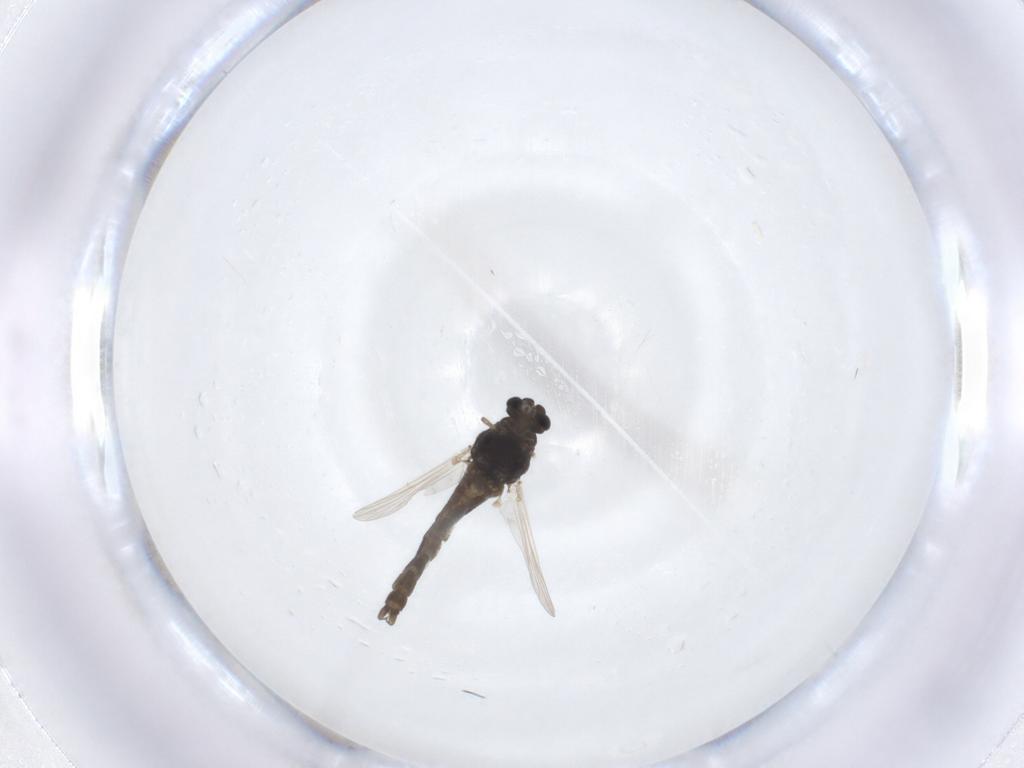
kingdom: Animalia
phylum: Arthropoda
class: Insecta
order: Diptera
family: Chironomidae
